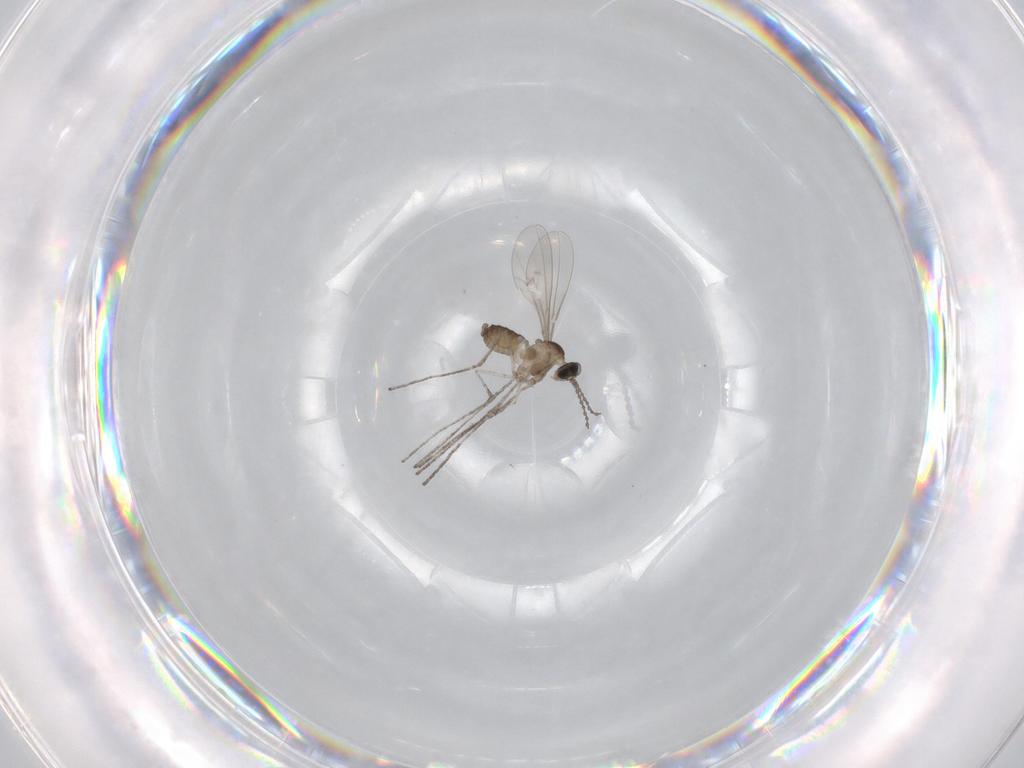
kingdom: Animalia
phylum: Arthropoda
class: Insecta
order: Diptera
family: Chironomidae
